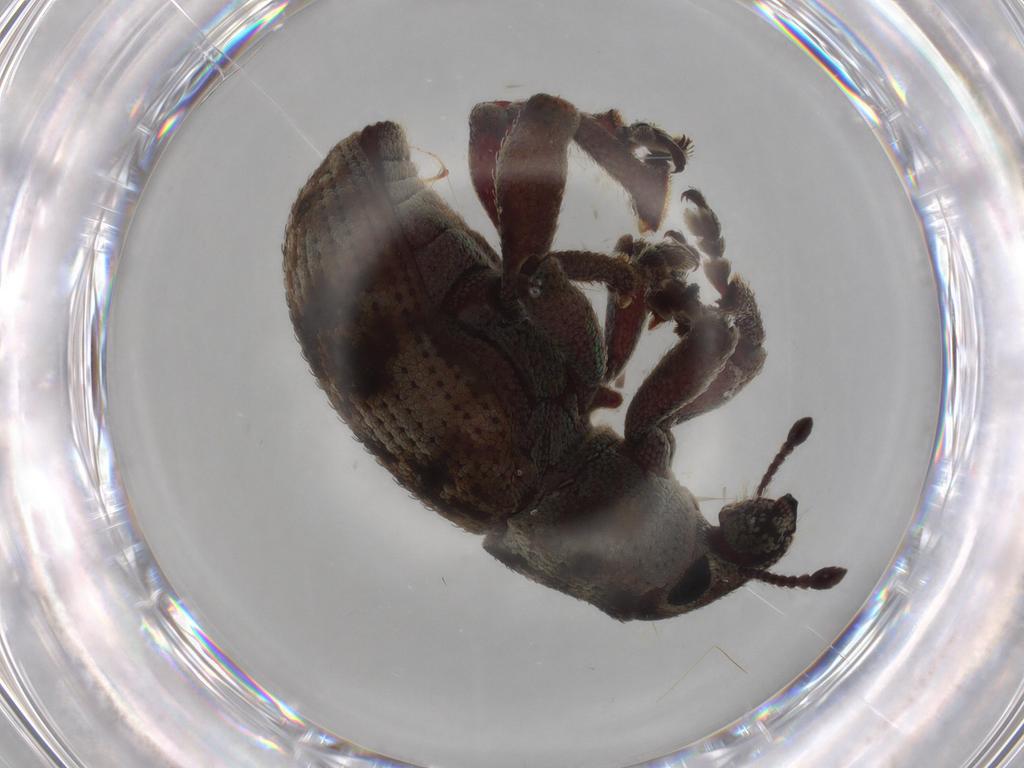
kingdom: Animalia
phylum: Arthropoda
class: Insecta
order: Coleoptera
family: Curculionidae
